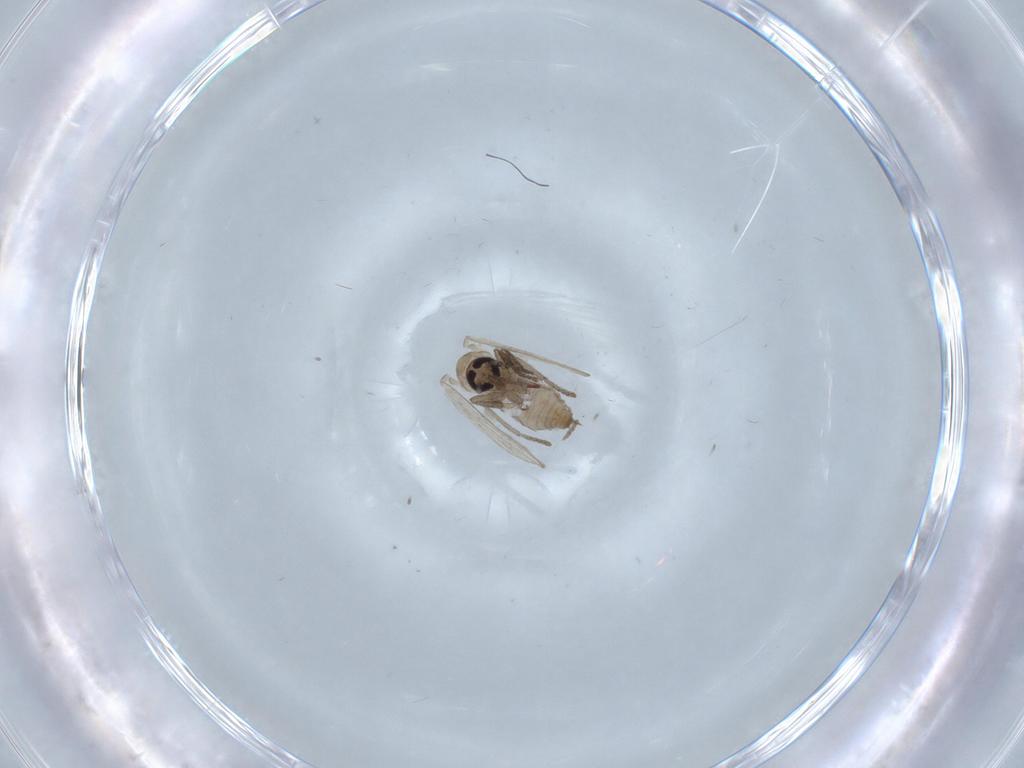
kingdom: Animalia
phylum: Arthropoda
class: Insecta
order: Diptera
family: Psychodidae
